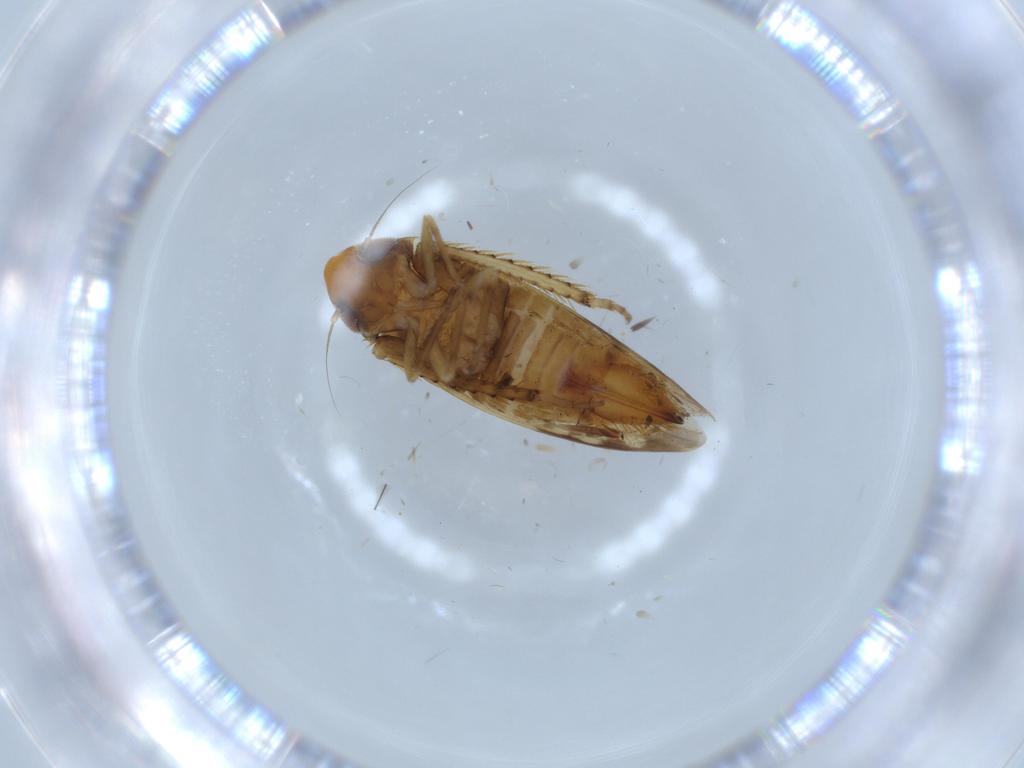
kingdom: Animalia
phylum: Arthropoda
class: Insecta
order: Hemiptera
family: Cicadellidae
